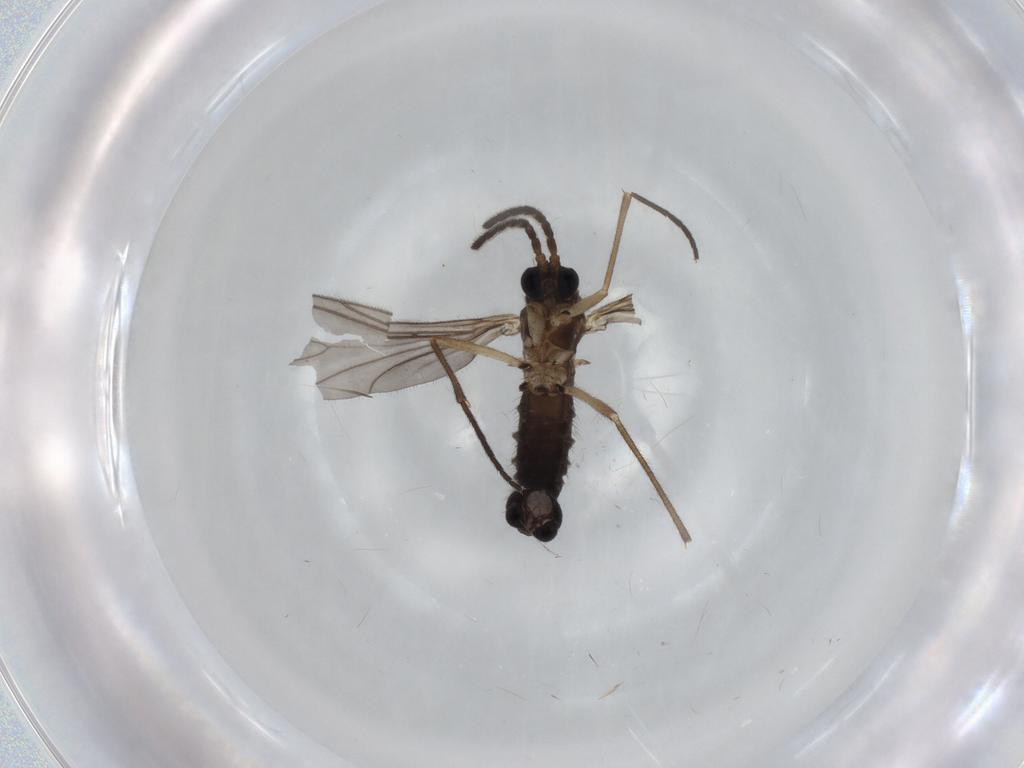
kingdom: Animalia
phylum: Arthropoda
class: Insecta
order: Diptera
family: Sciaridae
